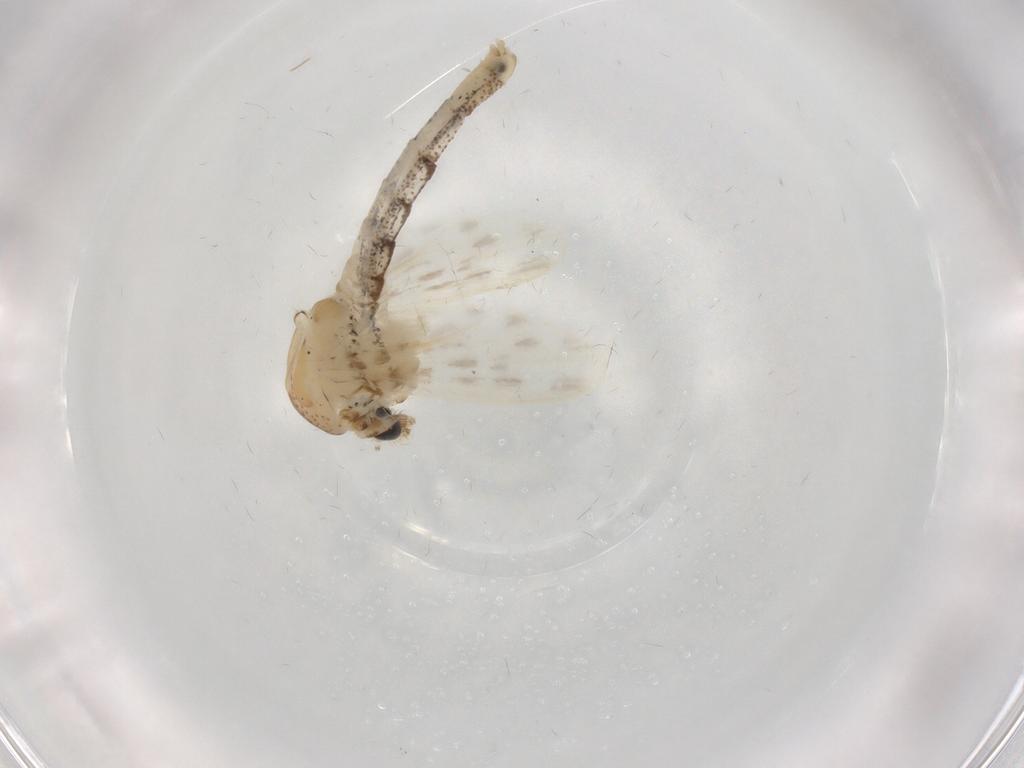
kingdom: Animalia
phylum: Arthropoda
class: Insecta
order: Diptera
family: Chaoboridae
